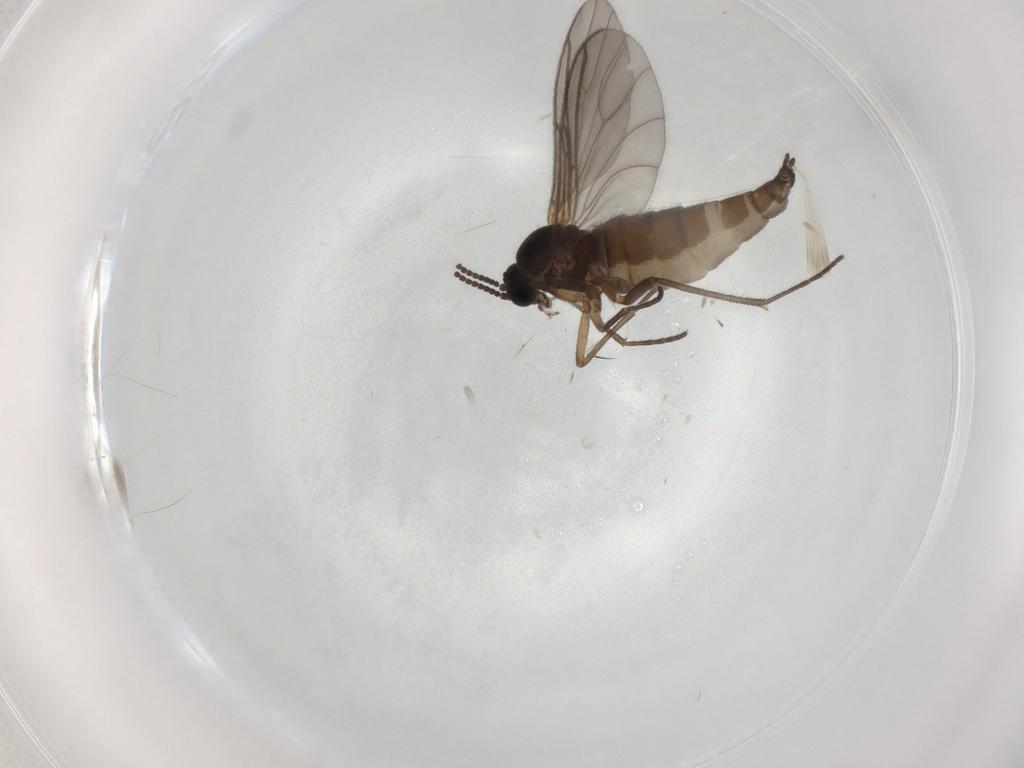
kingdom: Animalia
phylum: Arthropoda
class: Insecta
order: Diptera
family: Sciaridae
